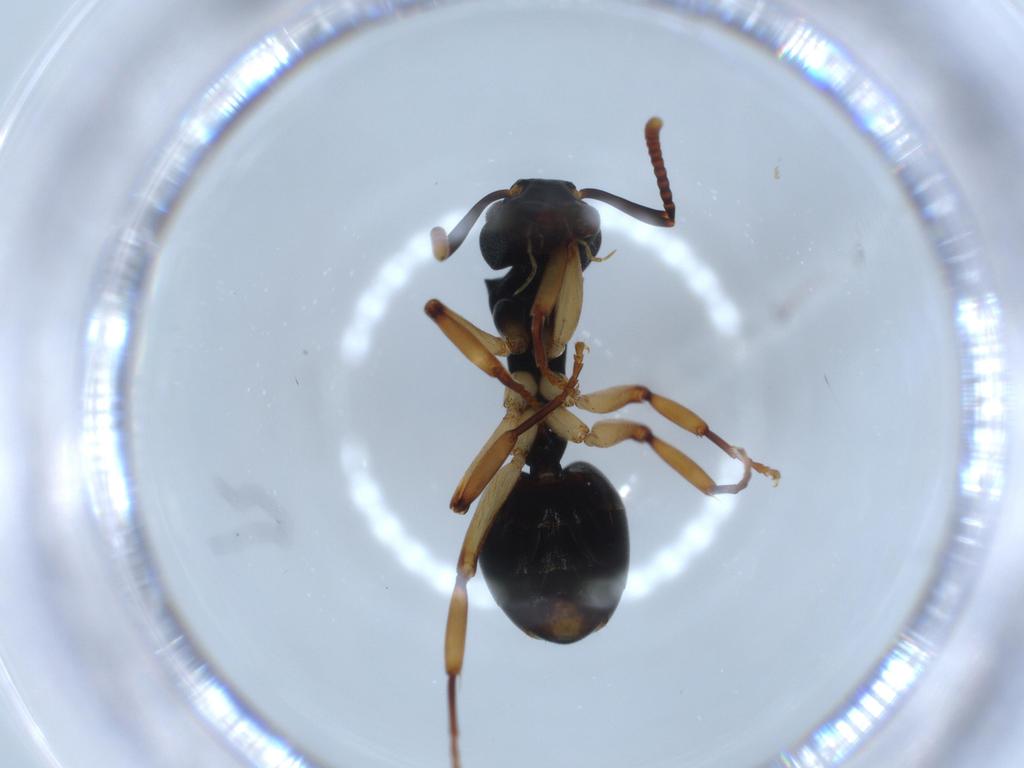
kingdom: Animalia
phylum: Arthropoda
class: Insecta
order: Hymenoptera
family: Formicidae
